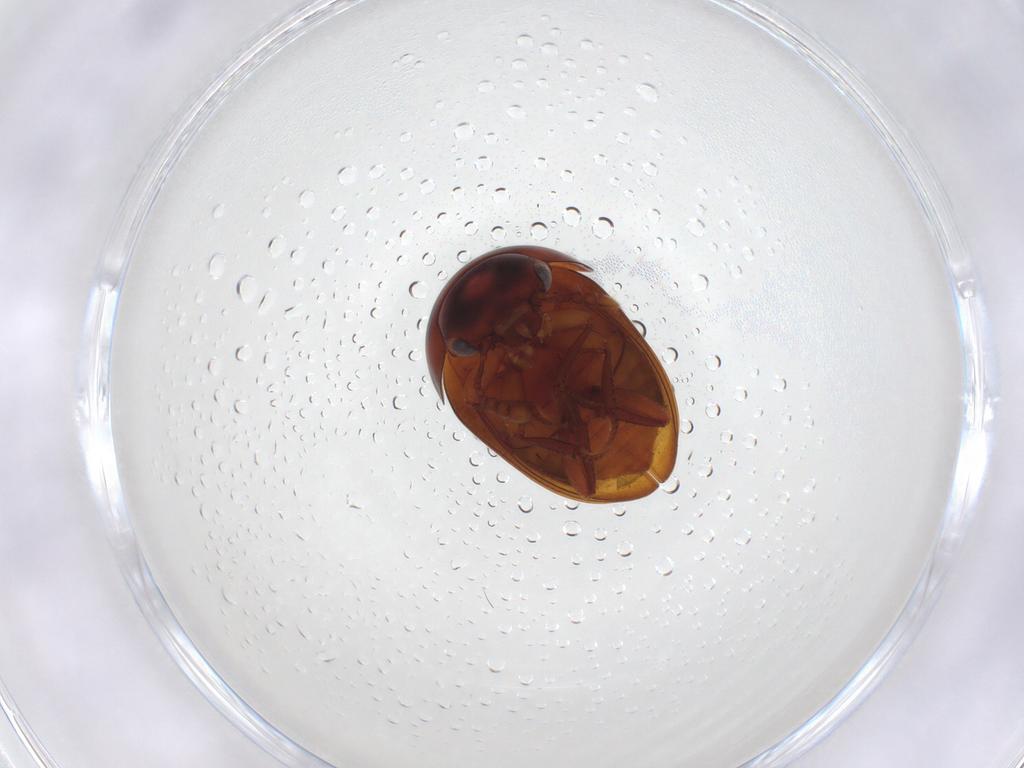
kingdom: Animalia
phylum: Arthropoda
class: Insecta
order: Coleoptera
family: Leiodidae
